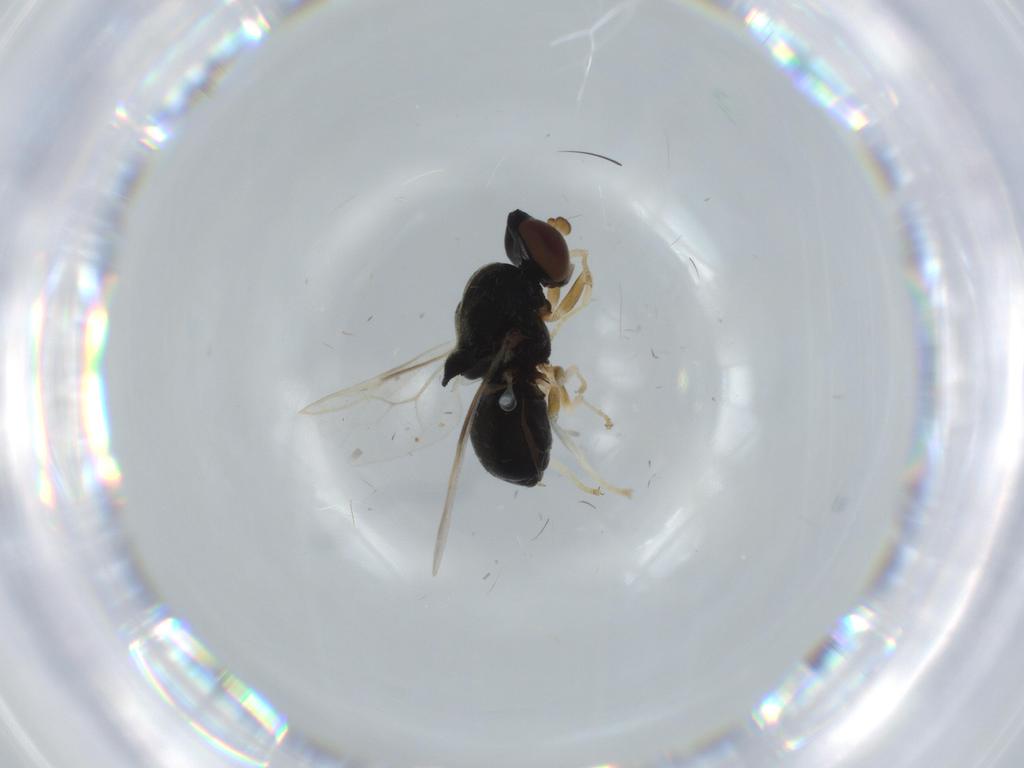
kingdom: Animalia
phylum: Arthropoda
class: Insecta
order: Diptera
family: Stratiomyidae
